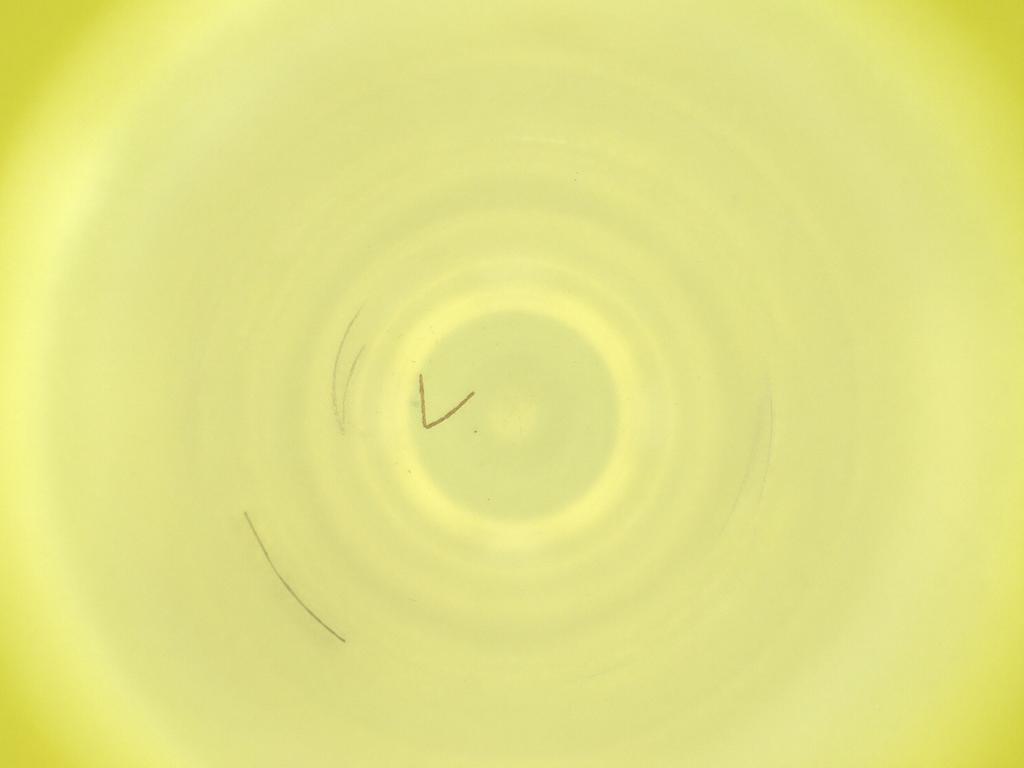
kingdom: Animalia
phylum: Arthropoda
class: Insecta
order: Diptera
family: Cecidomyiidae
